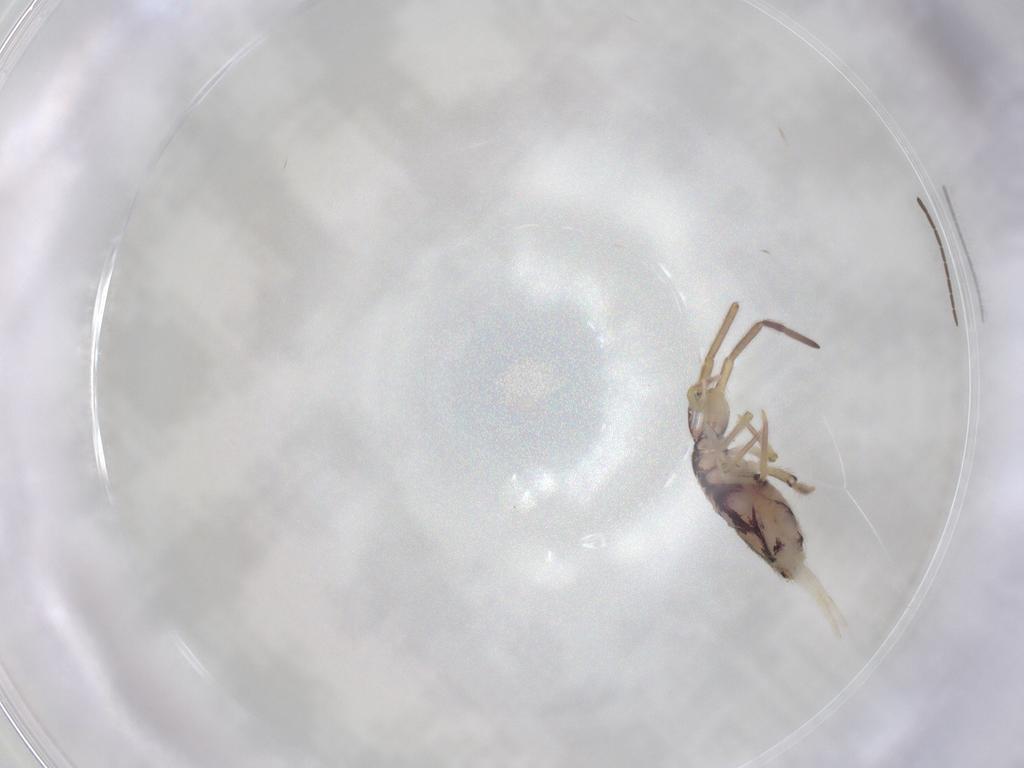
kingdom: Animalia
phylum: Arthropoda
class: Collembola
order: Entomobryomorpha
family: Entomobryidae
